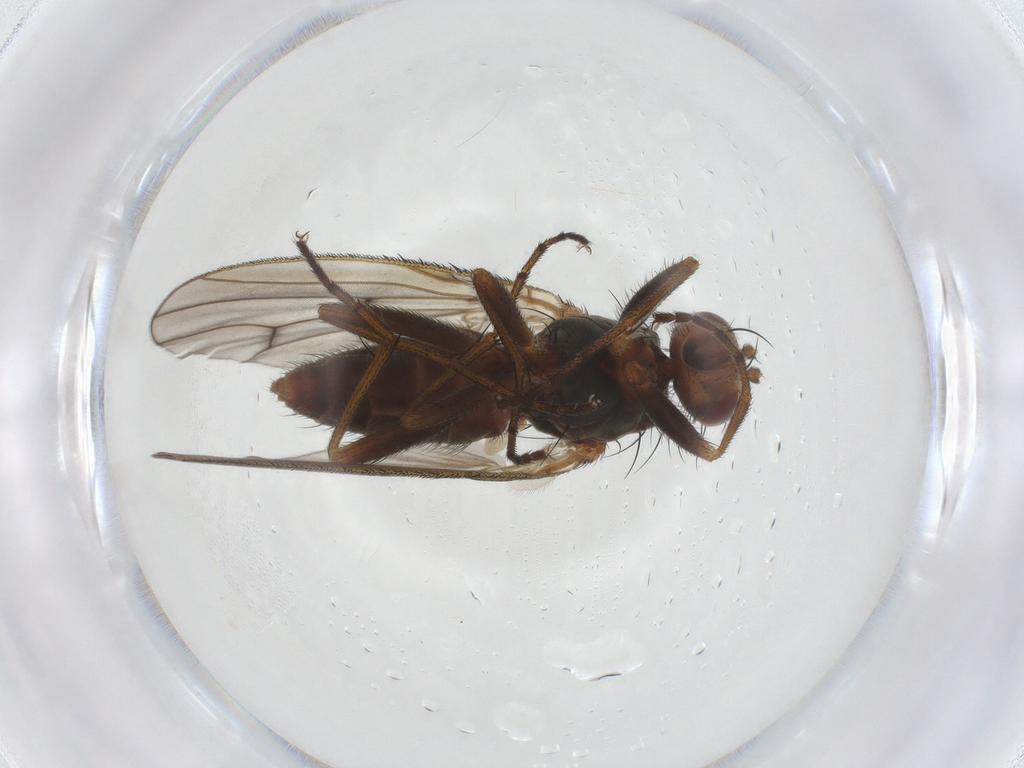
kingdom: Animalia
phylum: Arthropoda
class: Insecta
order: Diptera
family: Heleomyzidae
